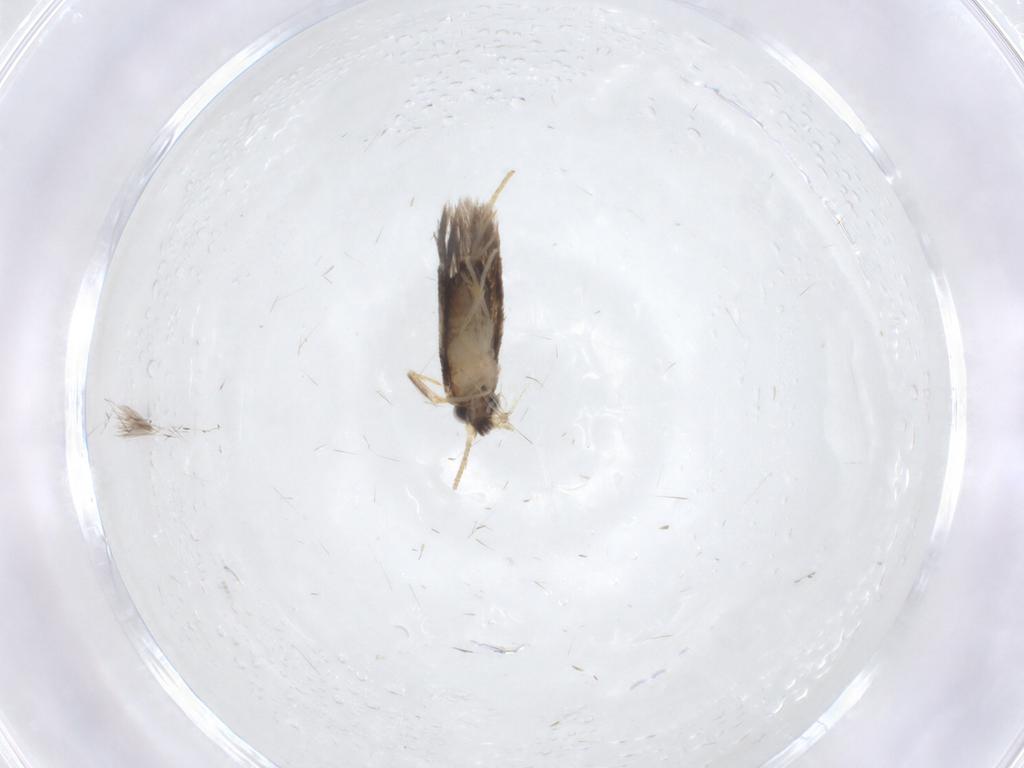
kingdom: Animalia
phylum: Arthropoda
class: Insecta
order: Lepidoptera
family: Nepticulidae
